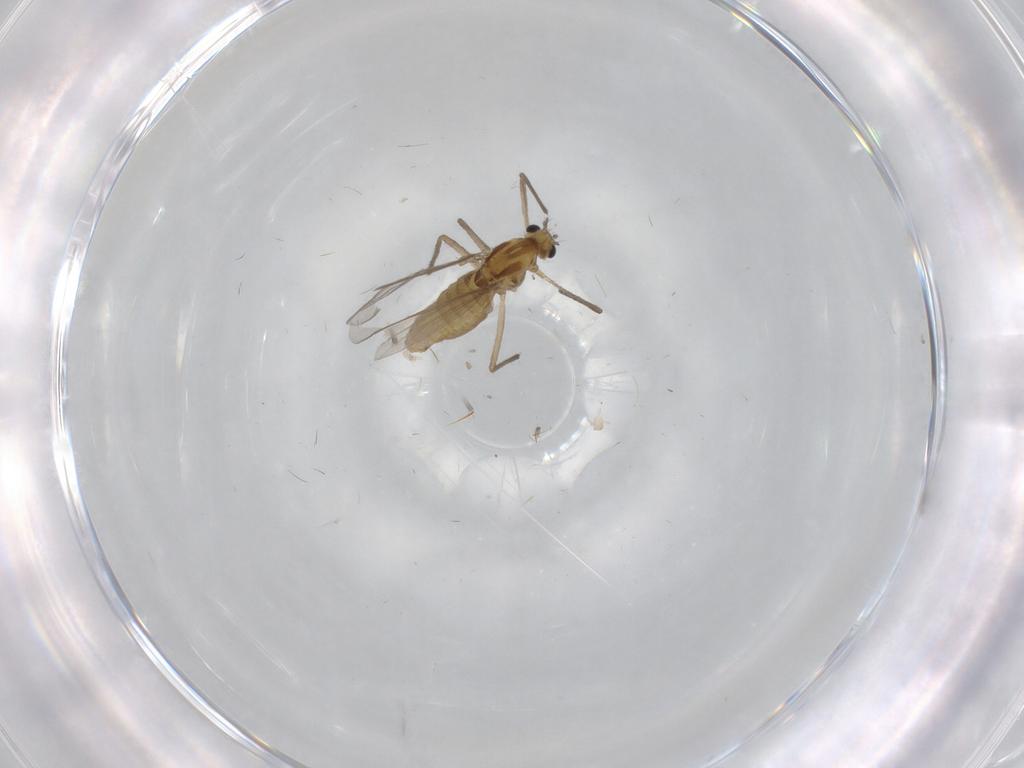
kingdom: Animalia
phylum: Arthropoda
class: Insecta
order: Diptera
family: Chironomidae
